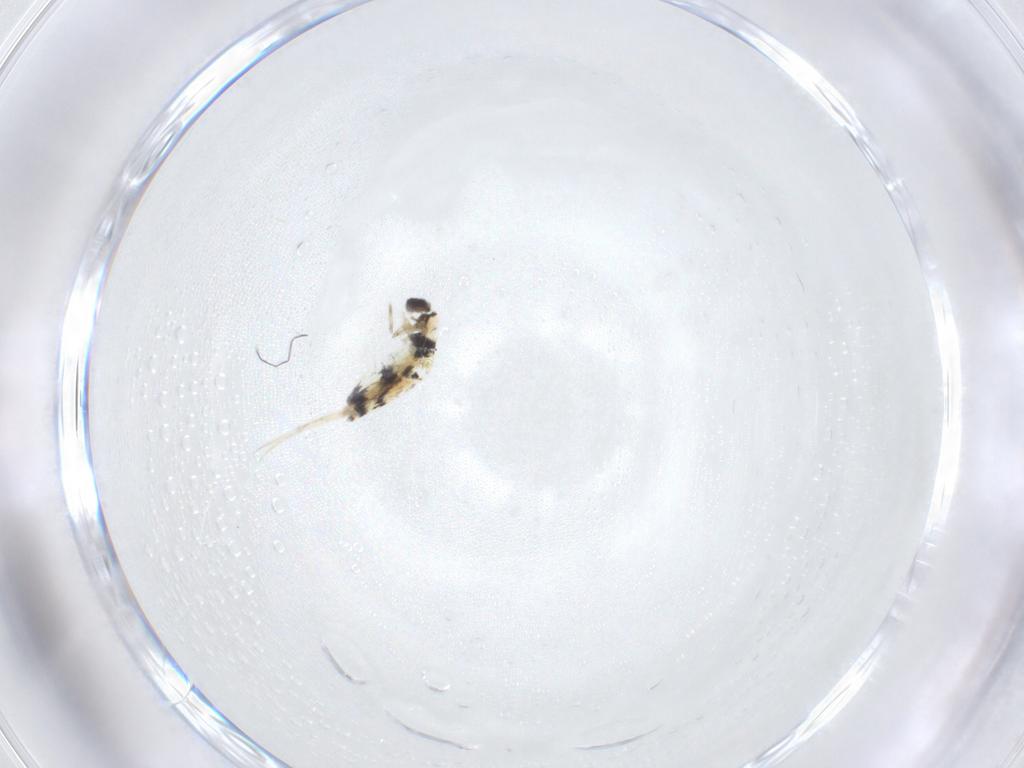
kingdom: Animalia
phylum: Arthropoda
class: Collembola
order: Entomobryomorpha
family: Entomobryidae
